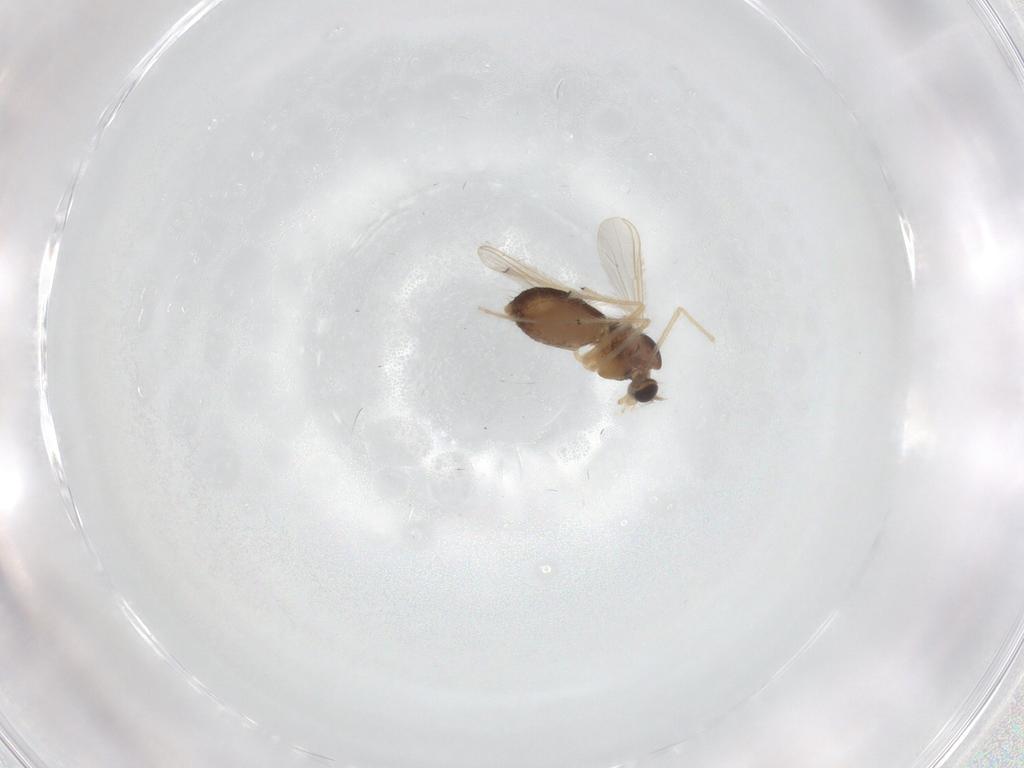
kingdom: Animalia
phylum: Arthropoda
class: Insecta
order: Diptera
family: Chironomidae
